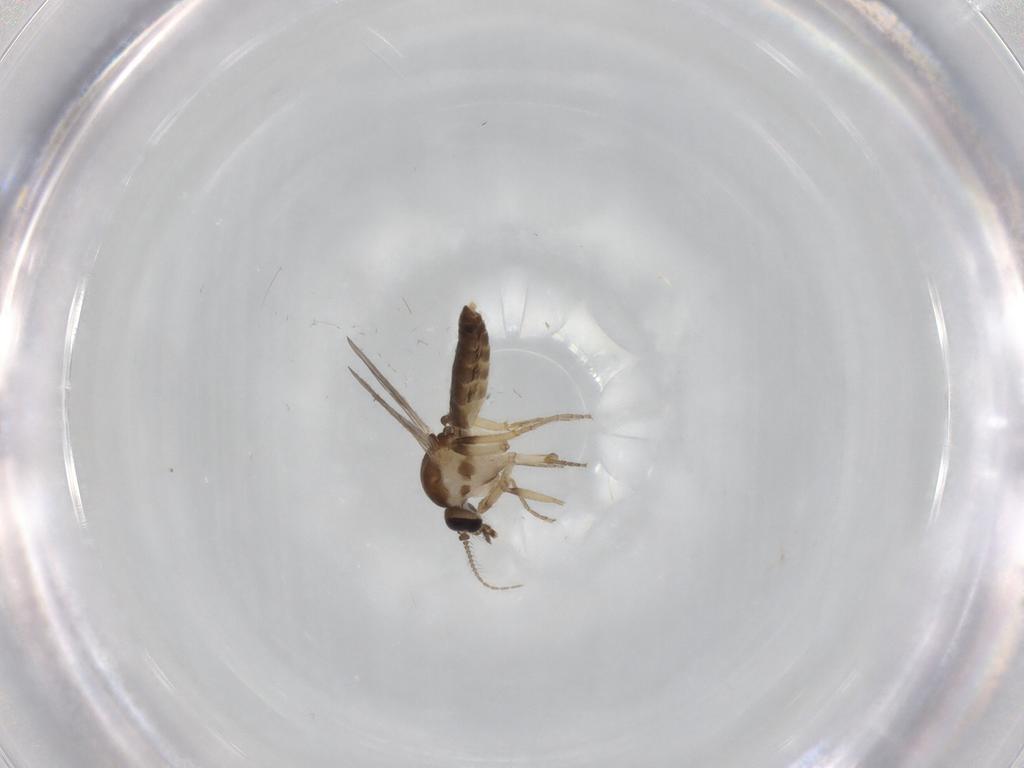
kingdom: Animalia
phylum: Arthropoda
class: Insecta
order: Diptera
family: Ceratopogonidae
